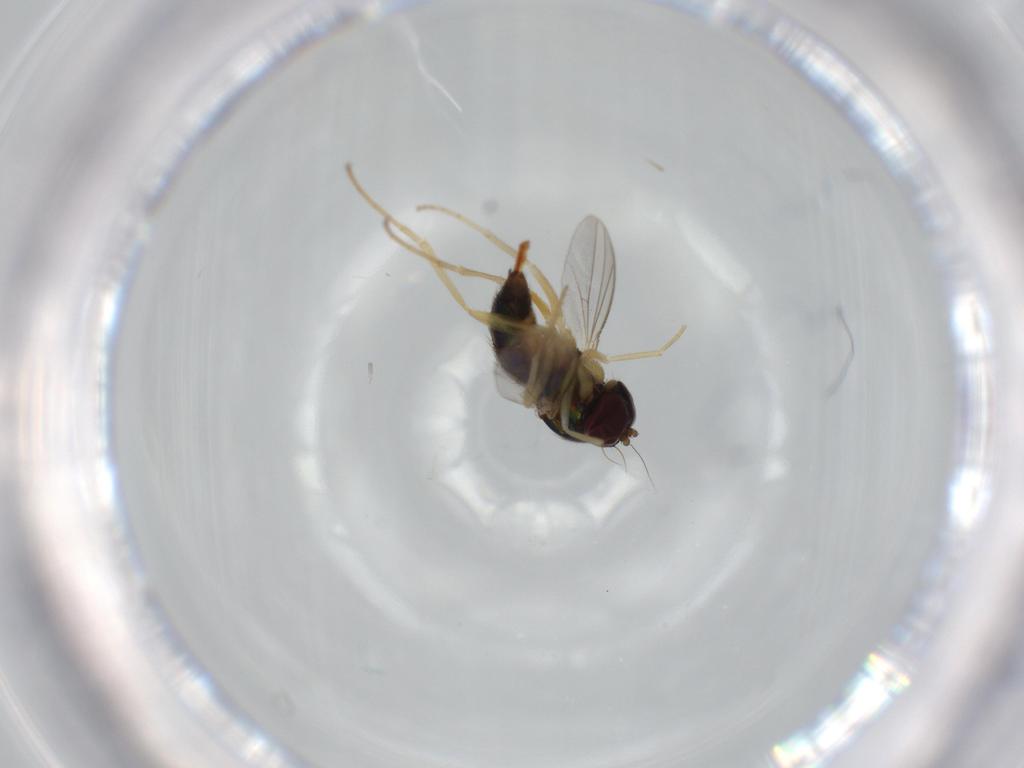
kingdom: Animalia
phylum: Arthropoda
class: Insecta
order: Diptera
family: Dolichopodidae
